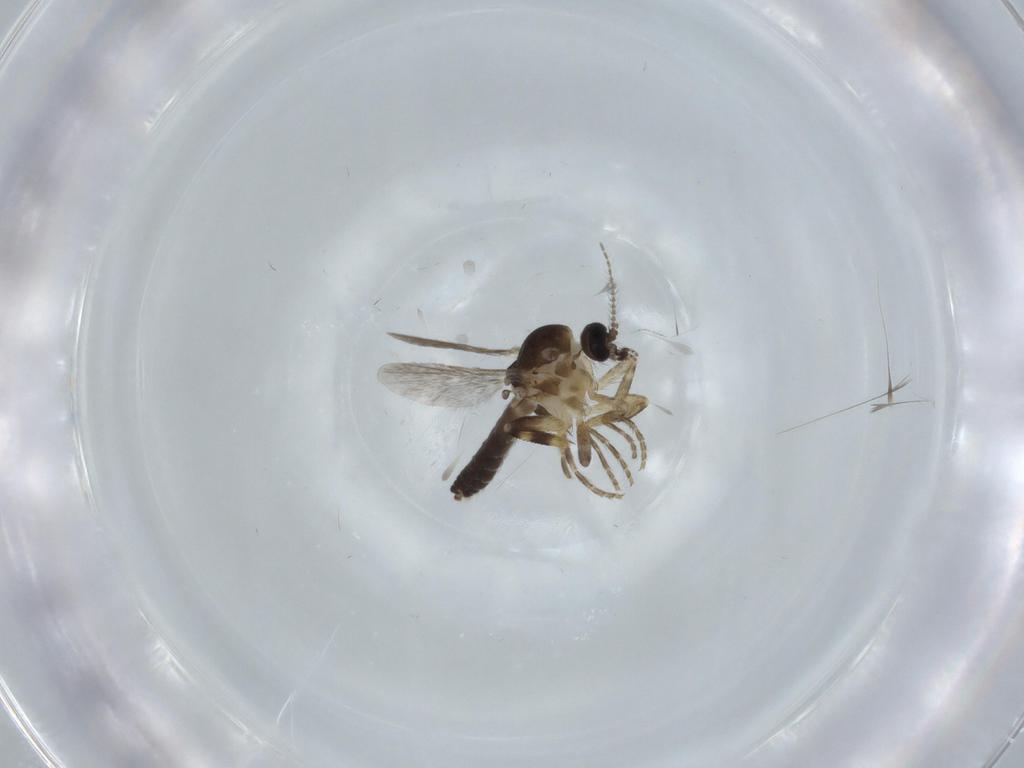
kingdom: Animalia
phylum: Arthropoda
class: Insecta
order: Diptera
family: Ceratopogonidae
